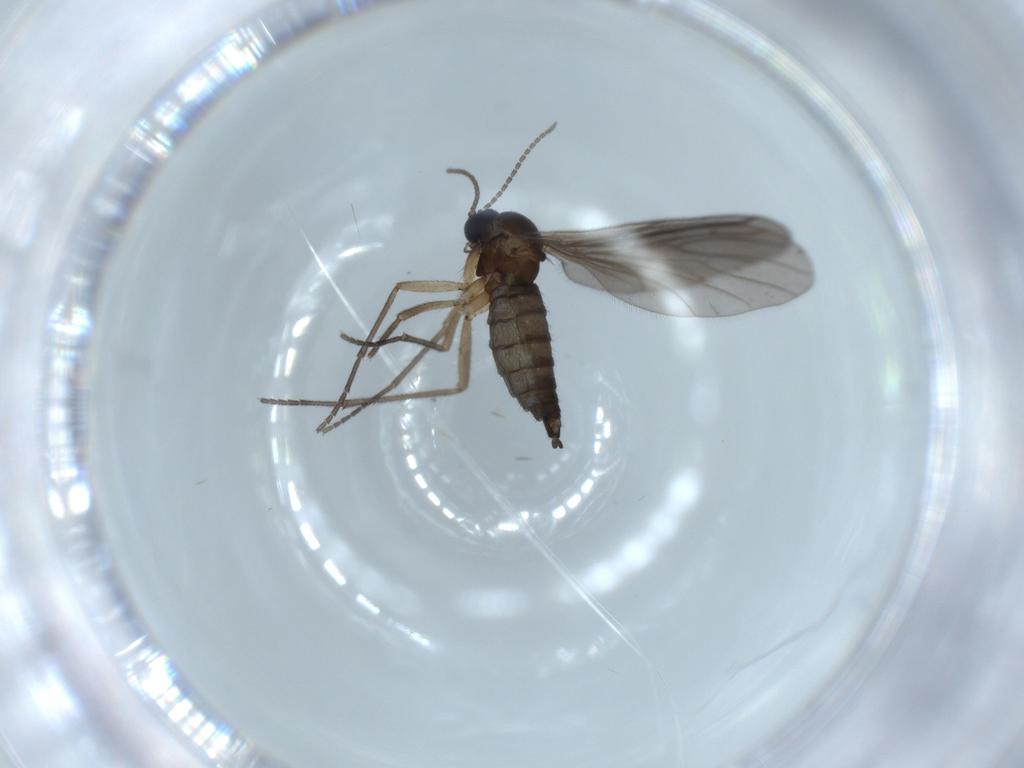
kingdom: Animalia
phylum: Arthropoda
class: Insecta
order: Diptera
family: Sciaridae
